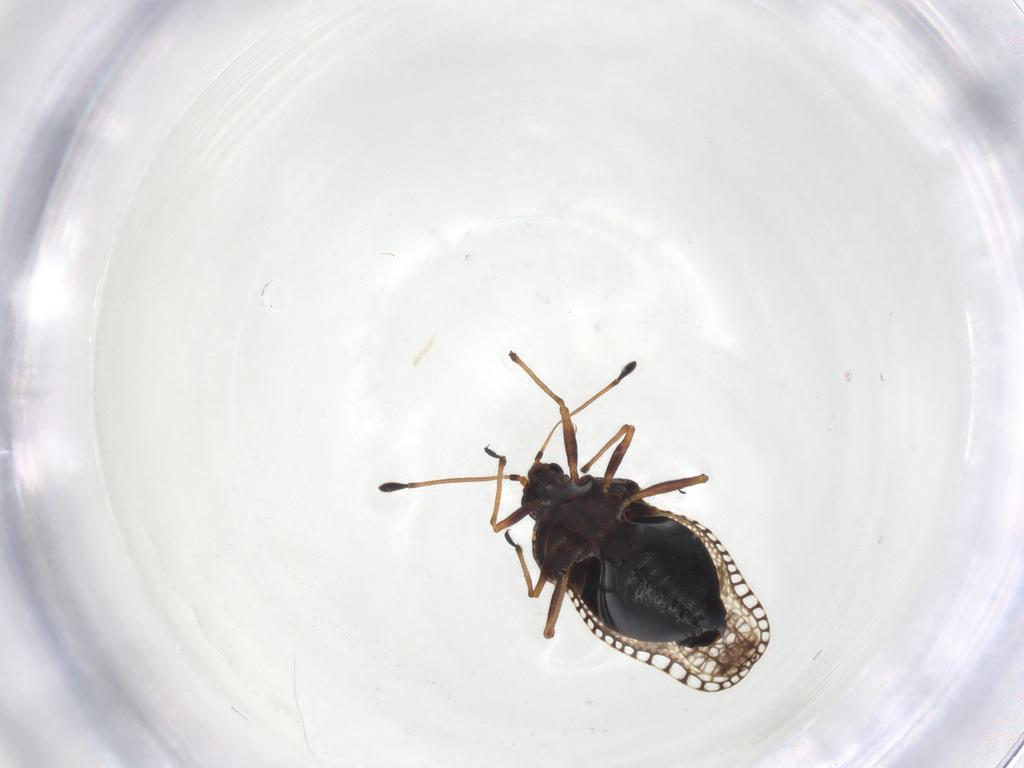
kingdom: Animalia
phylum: Arthropoda
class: Insecta
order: Hemiptera
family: Tingidae
